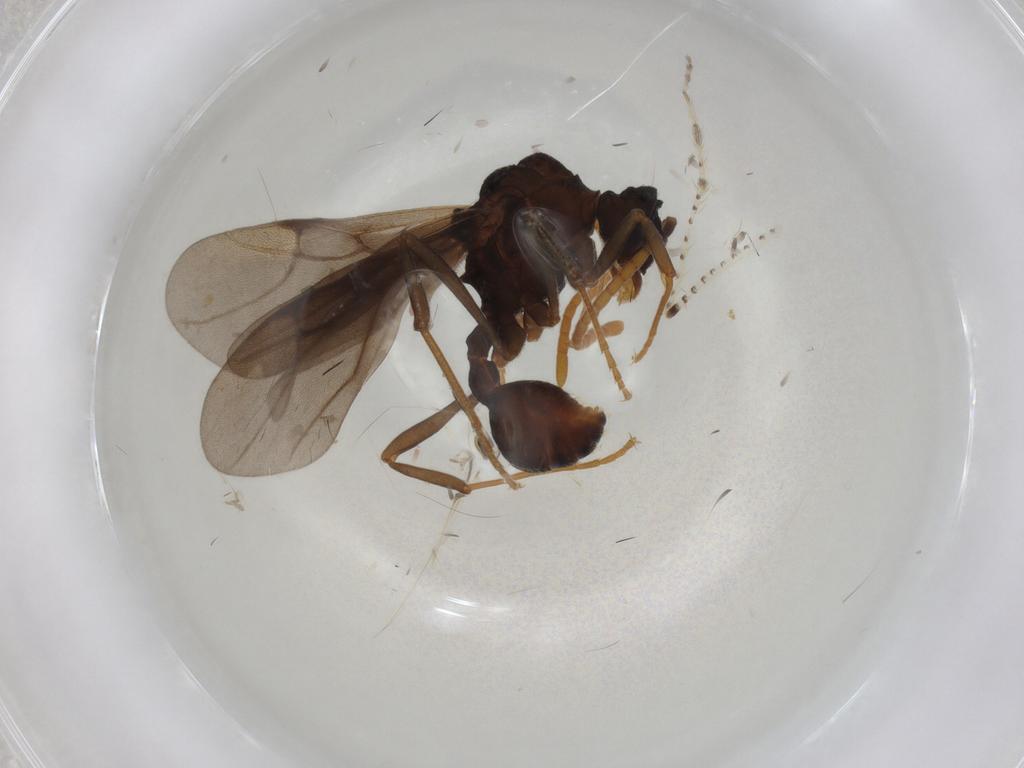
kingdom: Animalia
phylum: Arthropoda
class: Insecta
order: Hymenoptera
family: Formicidae
